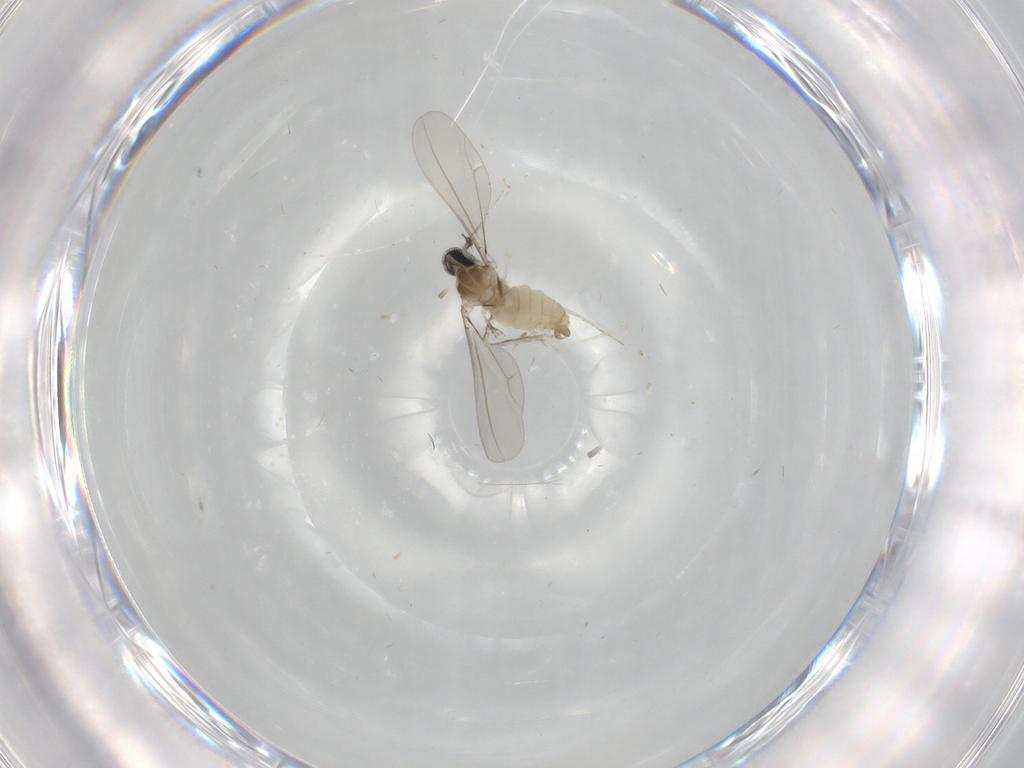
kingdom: Animalia
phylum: Arthropoda
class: Insecta
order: Diptera
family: Cecidomyiidae
